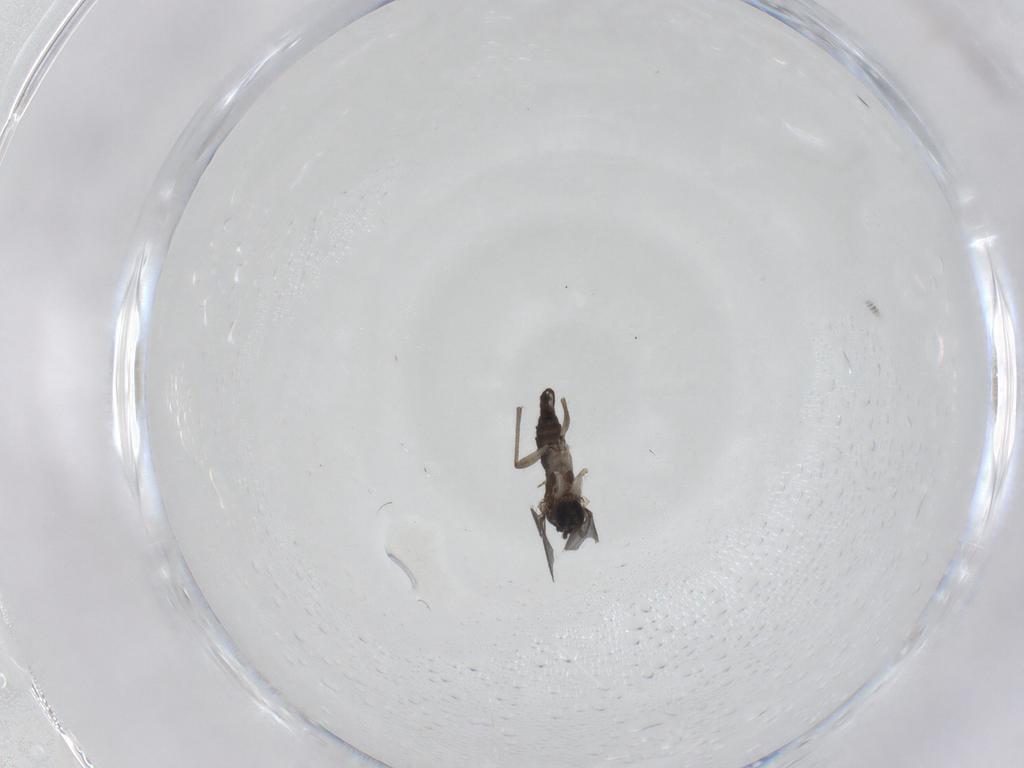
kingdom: Animalia
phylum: Arthropoda
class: Insecta
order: Diptera
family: Sciaridae
